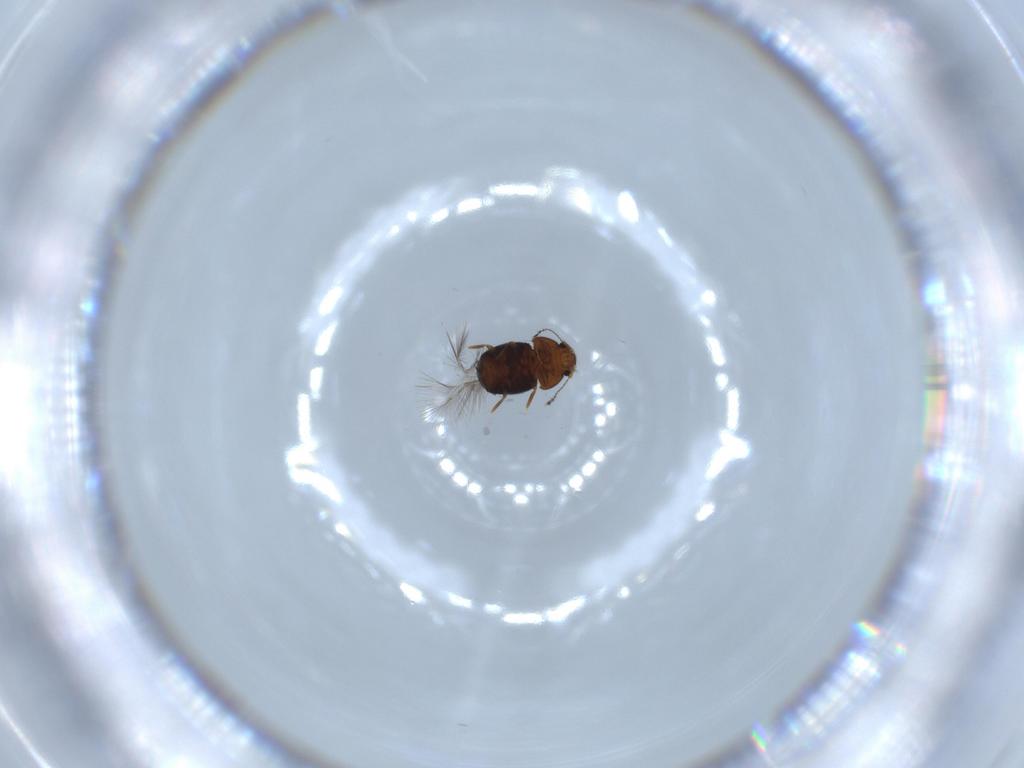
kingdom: Animalia
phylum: Arthropoda
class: Insecta
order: Coleoptera
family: Ptiliidae
